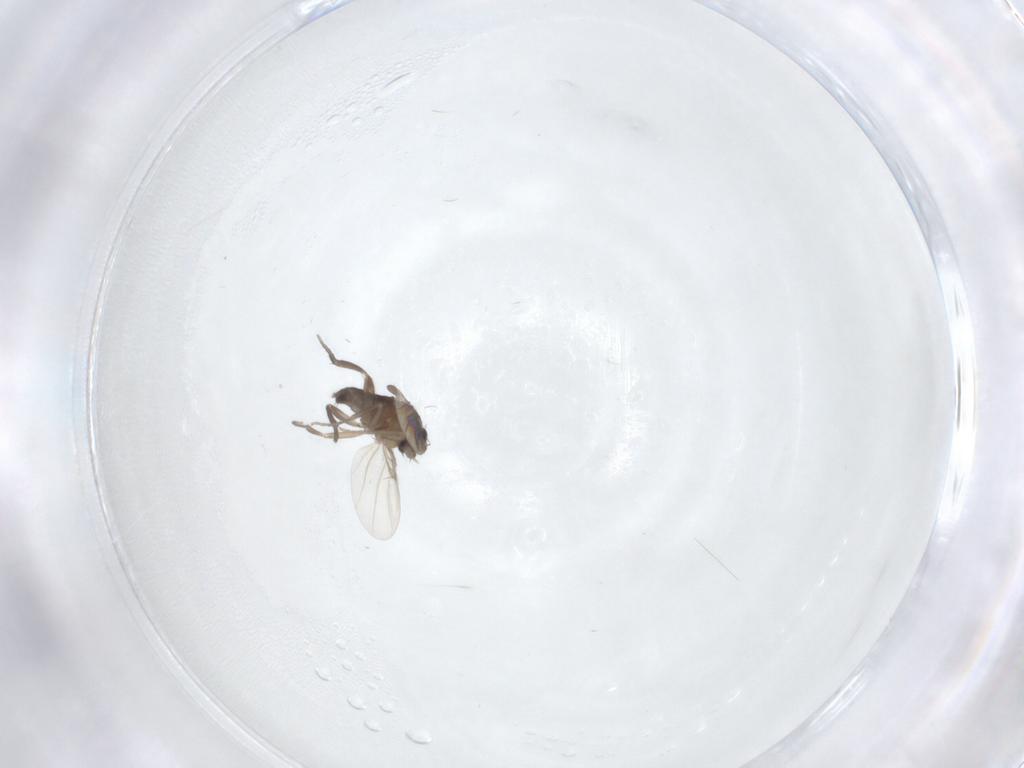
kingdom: Animalia
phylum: Arthropoda
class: Insecta
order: Diptera
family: Phoridae
